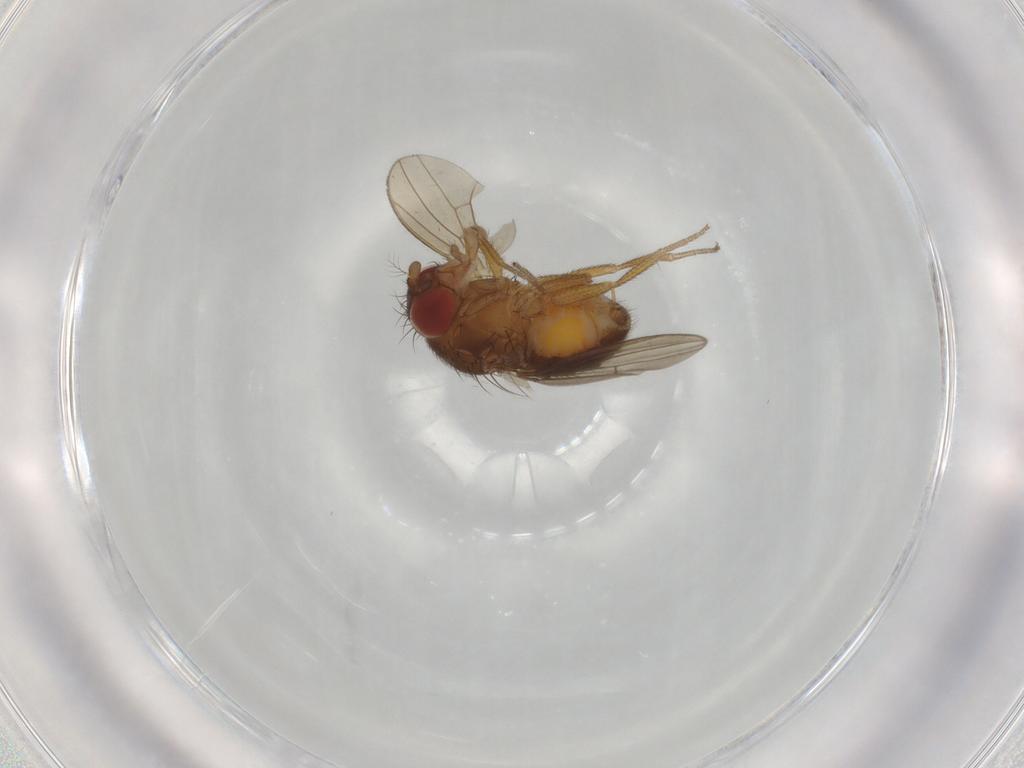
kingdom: Animalia
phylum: Arthropoda
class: Insecta
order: Diptera
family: Drosophilidae
